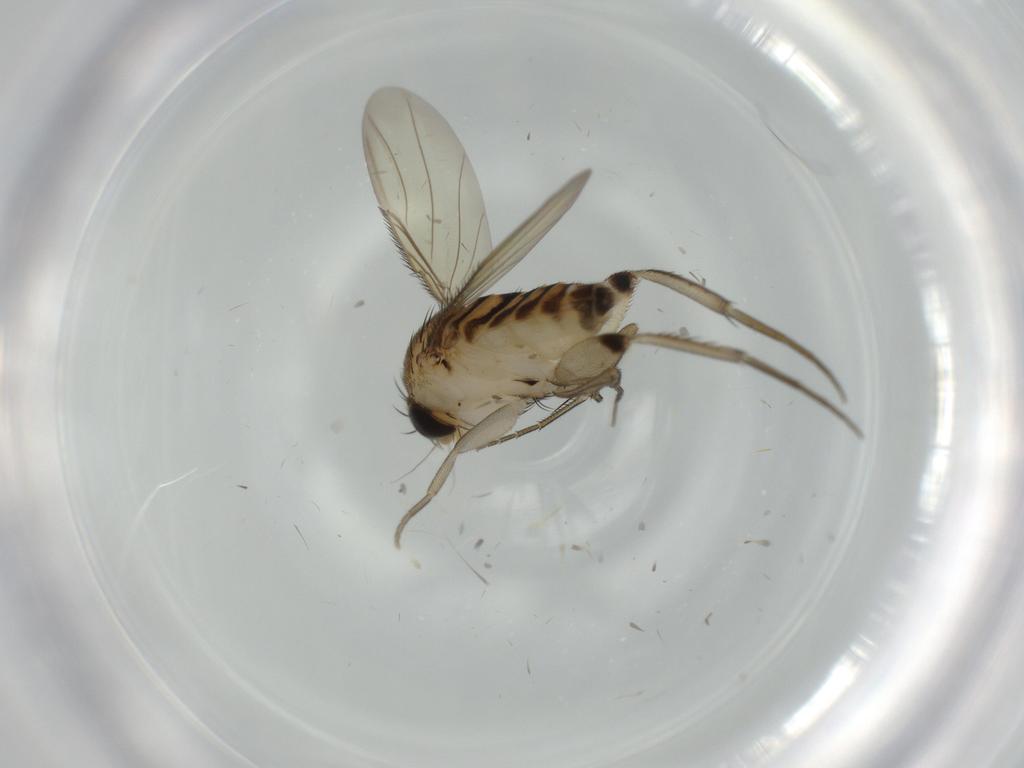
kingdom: Animalia
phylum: Arthropoda
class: Insecta
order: Diptera
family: Phoridae
